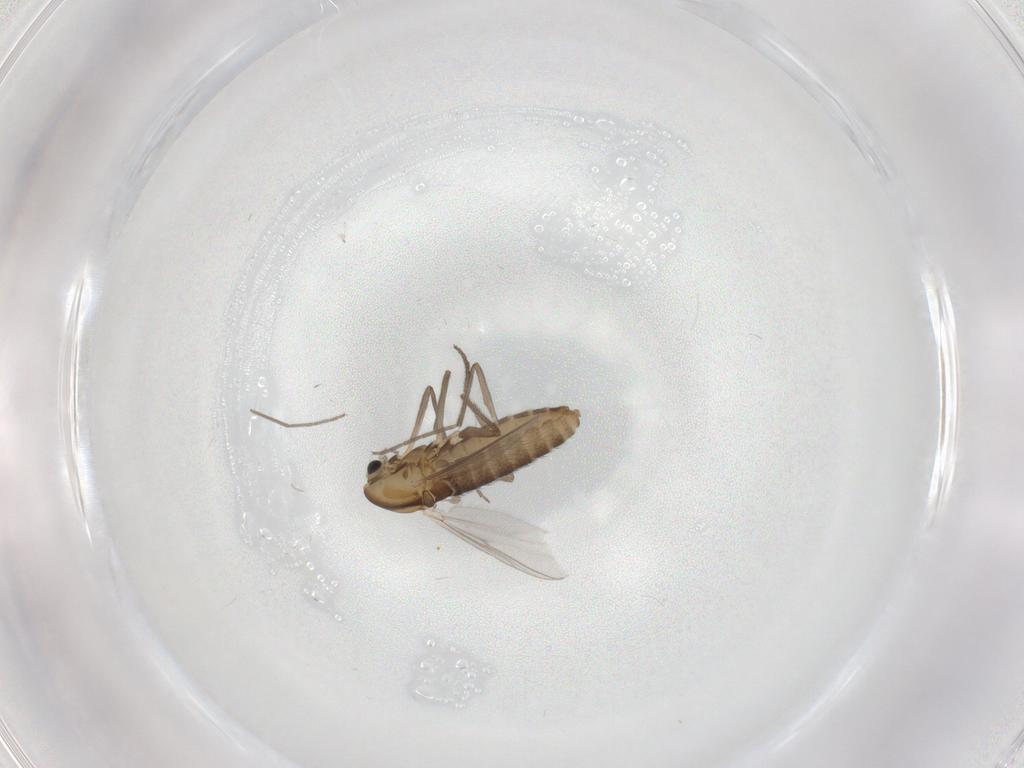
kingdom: Animalia
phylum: Arthropoda
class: Insecta
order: Diptera
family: Chironomidae
